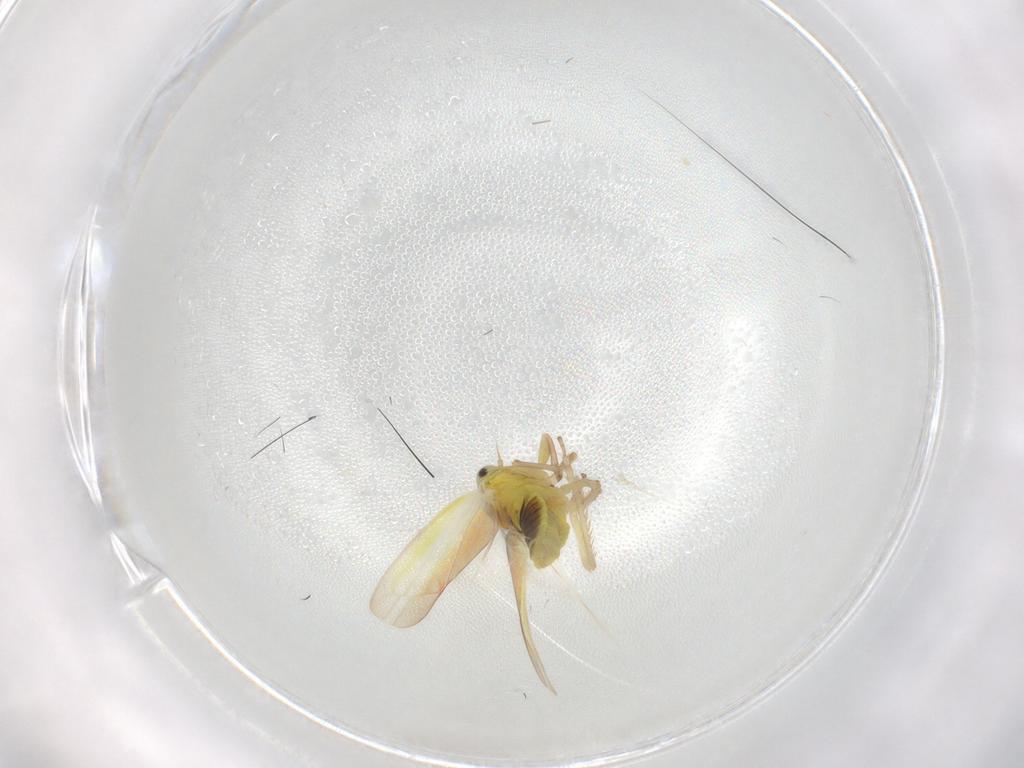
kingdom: Animalia
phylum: Arthropoda
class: Insecta
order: Hemiptera
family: Cicadellidae
